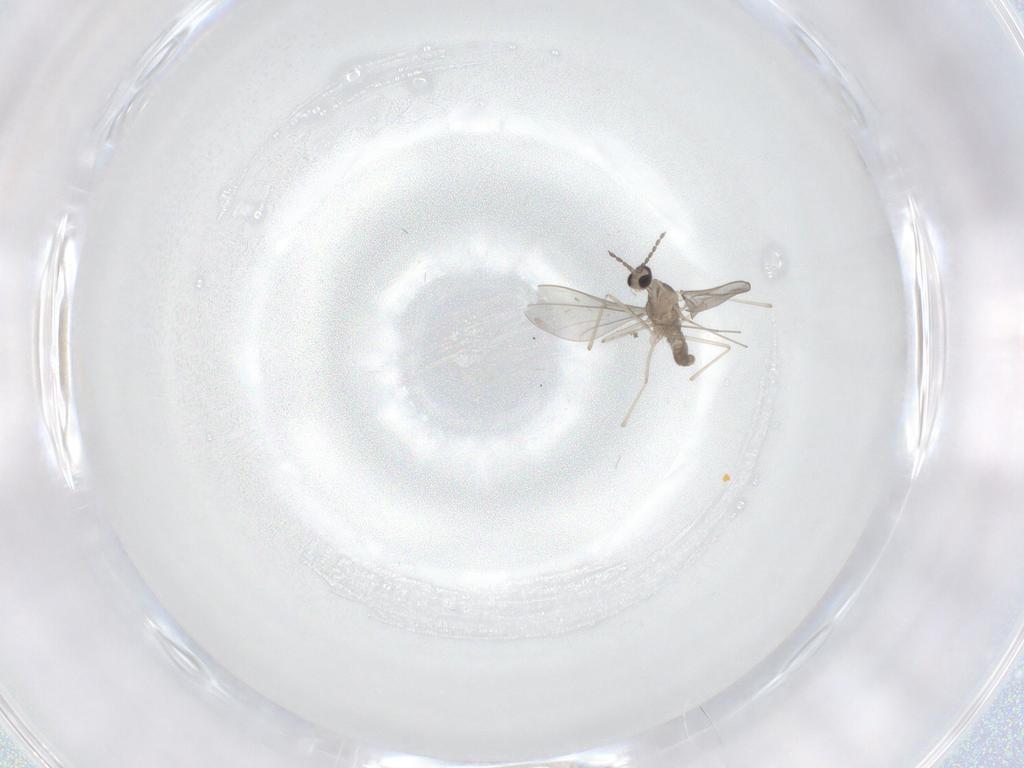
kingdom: Animalia
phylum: Arthropoda
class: Insecta
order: Diptera
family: Cecidomyiidae
